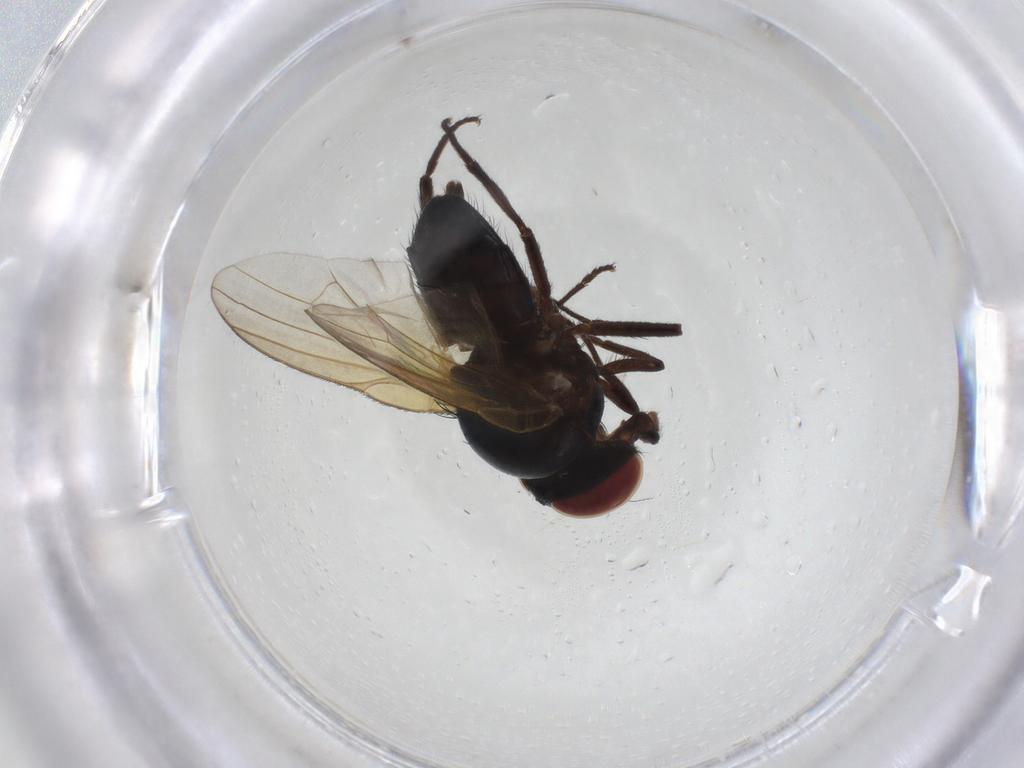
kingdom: Animalia
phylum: Arthropoda
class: Insecta
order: Diptera
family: Lonchaeidae
